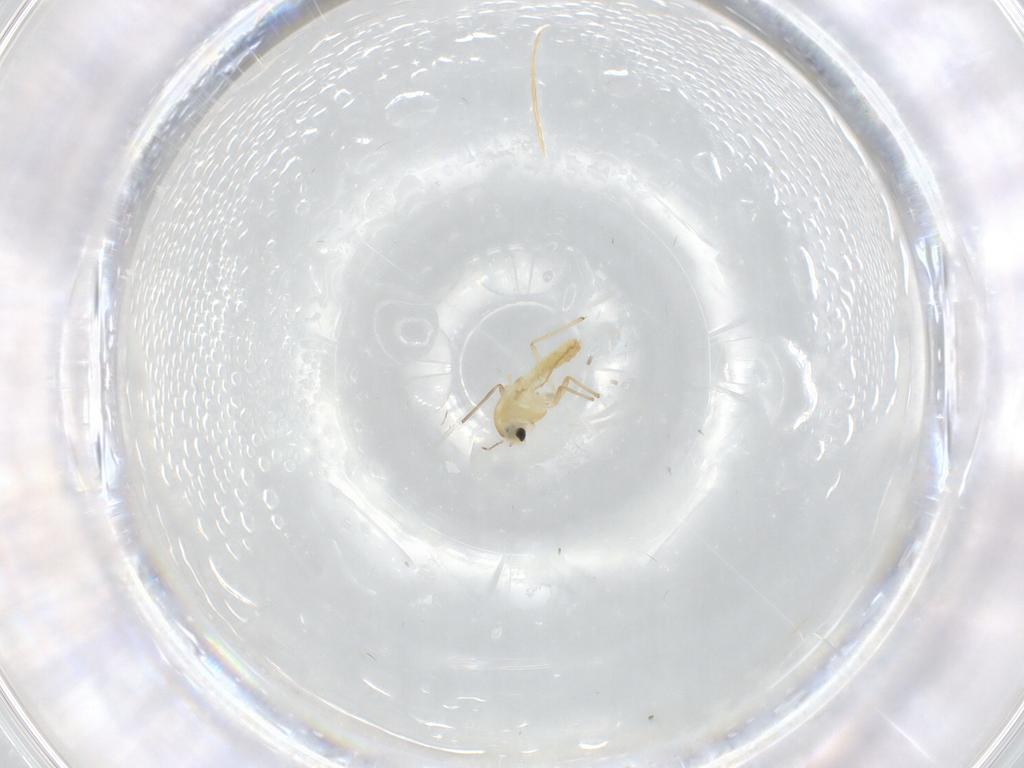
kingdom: Animalia
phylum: Arthropoda
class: Insecta
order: Diptera
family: Chironomidae
